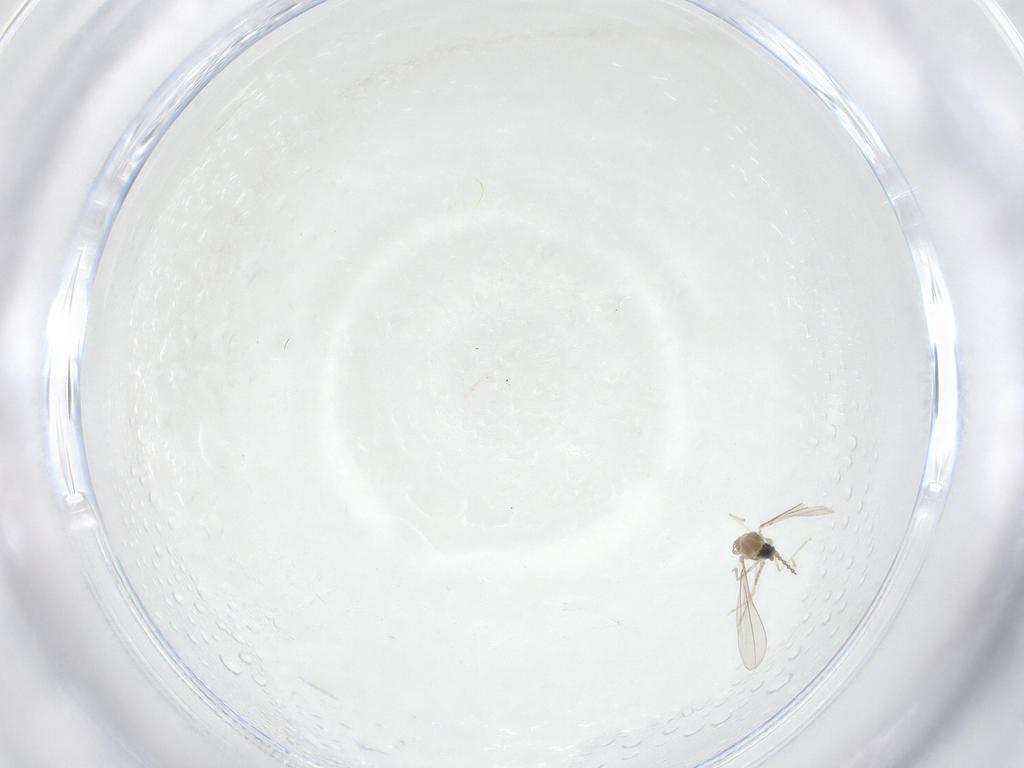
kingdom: Animalia
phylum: Arthropoda
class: Insecta
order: Diptera
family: Cecidomyiidae
